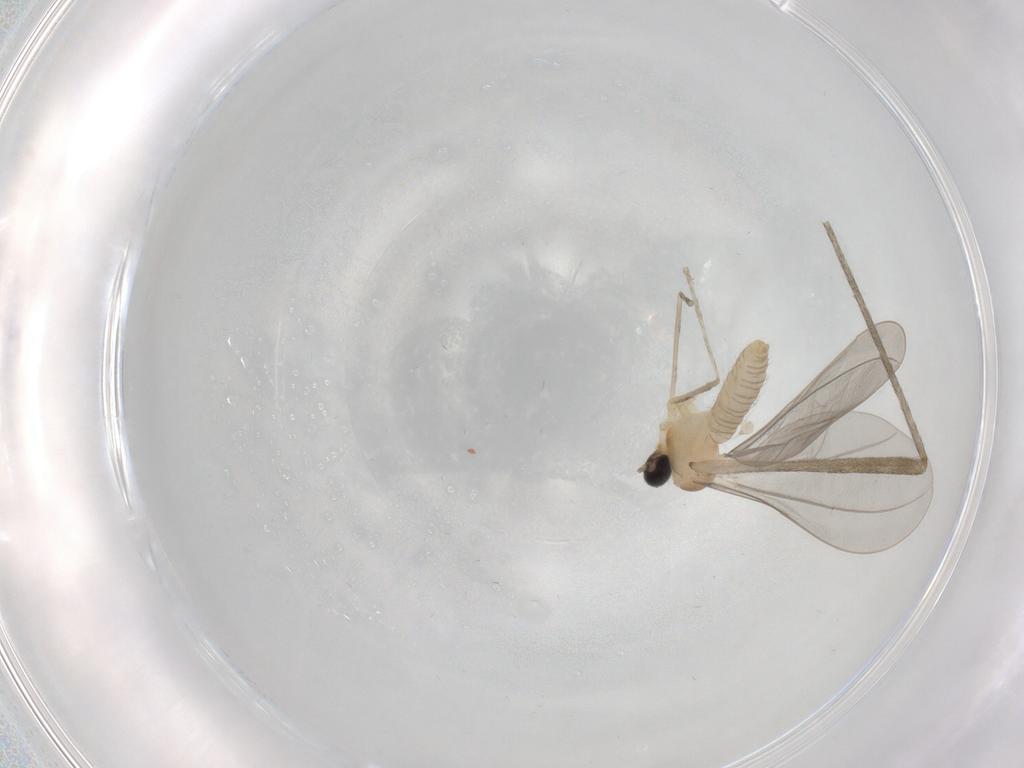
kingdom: Animalia
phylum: Arthropoda
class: Insecta
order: Diptera
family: Cecidomyiidae
